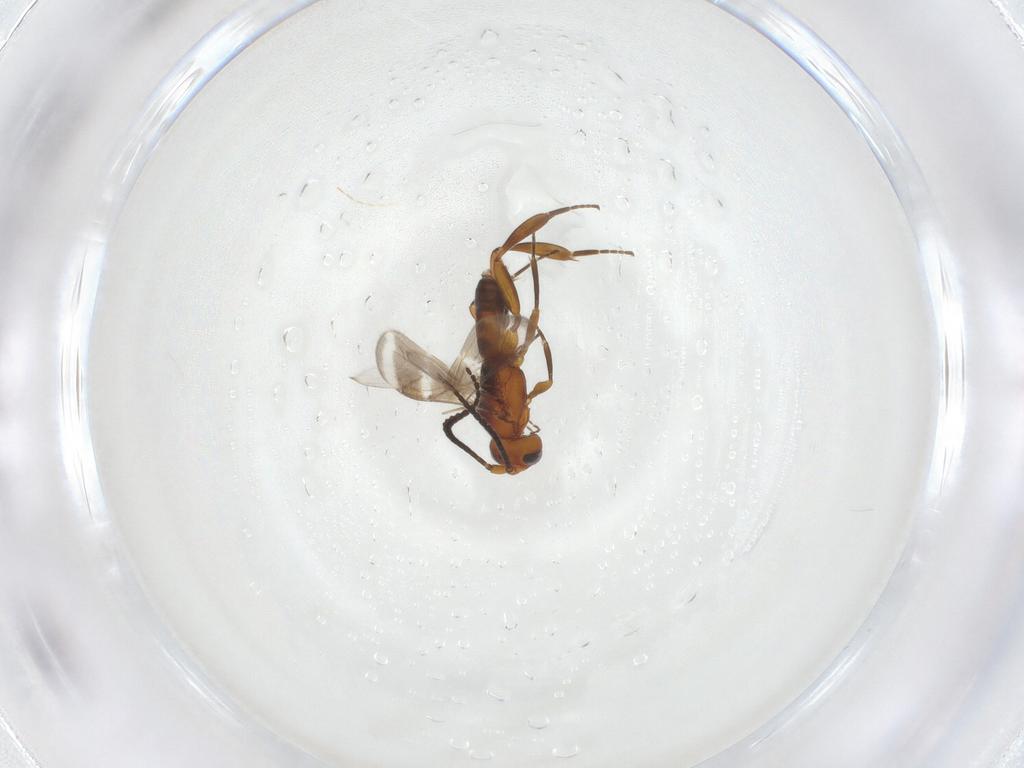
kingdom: Animalia
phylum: Arthropoda
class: Insecta
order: Hymenoptera
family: Braconidae
